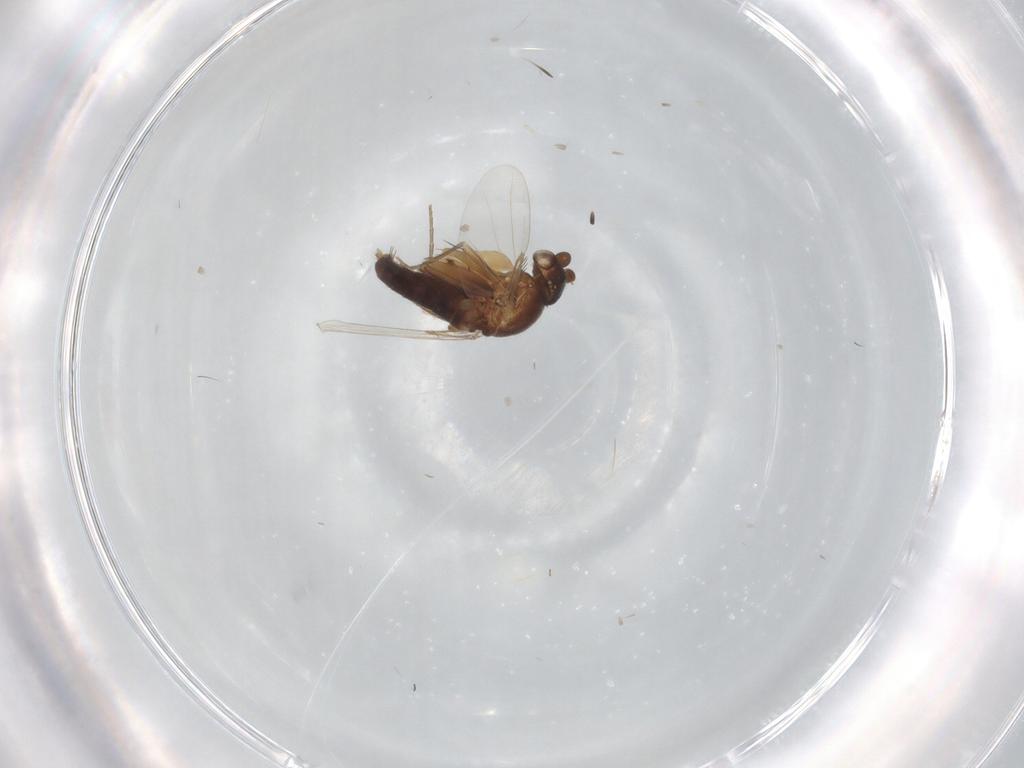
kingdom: Animalia
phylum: Arthropoda
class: Insecta
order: Diptera
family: Phoridae
